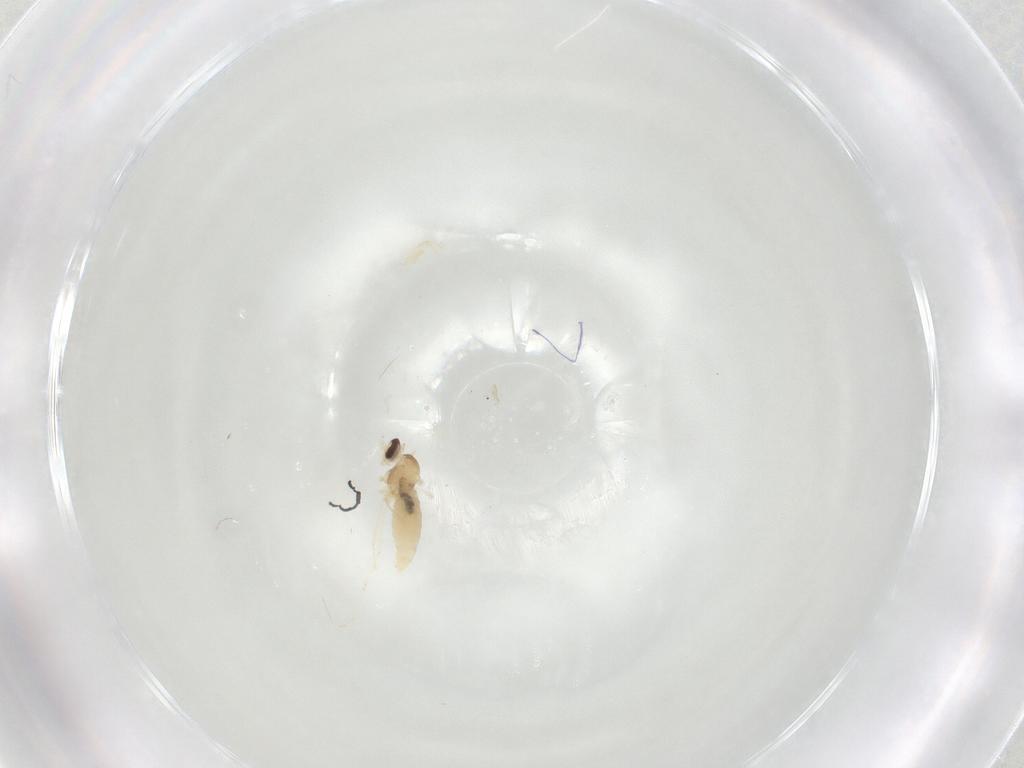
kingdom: Animalia
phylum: Arthropoda
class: Insecta
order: Diptera
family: Cecidomyiidae
